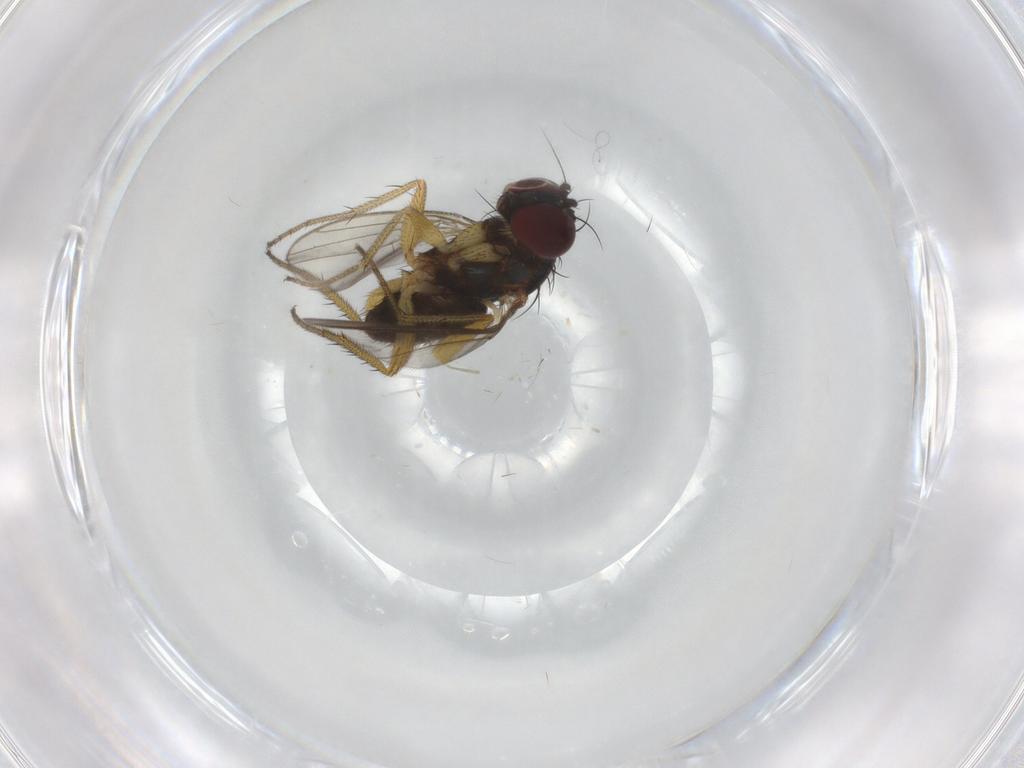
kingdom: Animalia
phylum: Arthropoda
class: Insecta
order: Diptera
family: Dolichopodidae
